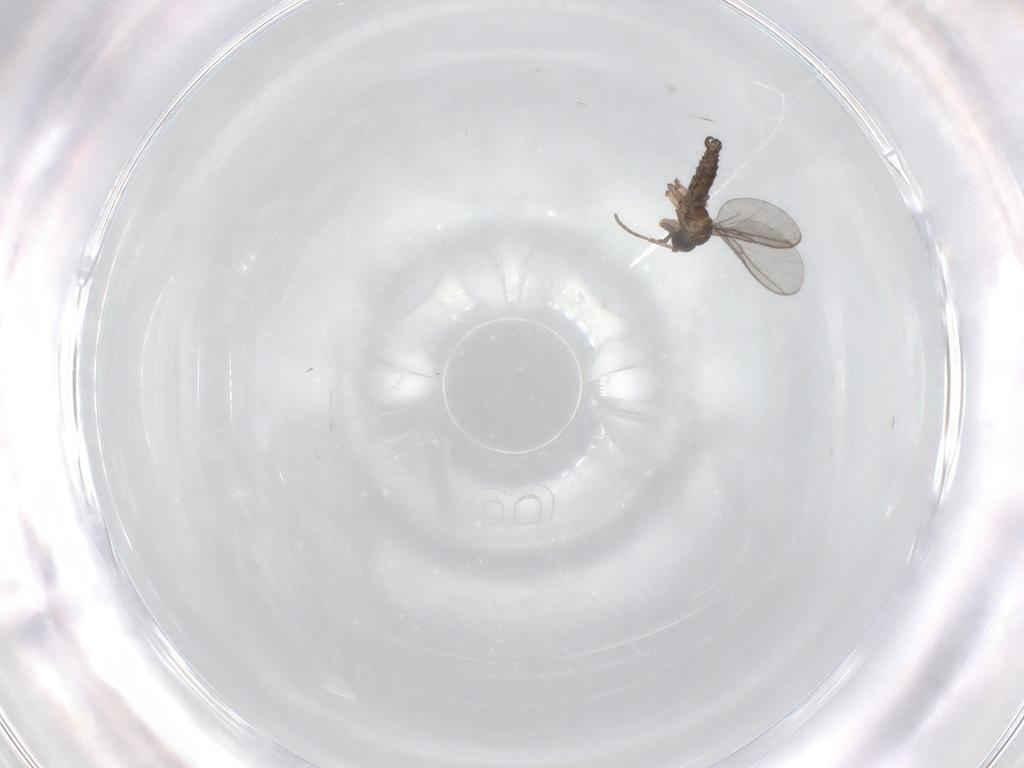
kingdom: Animalia
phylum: Arthropoda
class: Insecta
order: Diptera
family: Sciaridae
